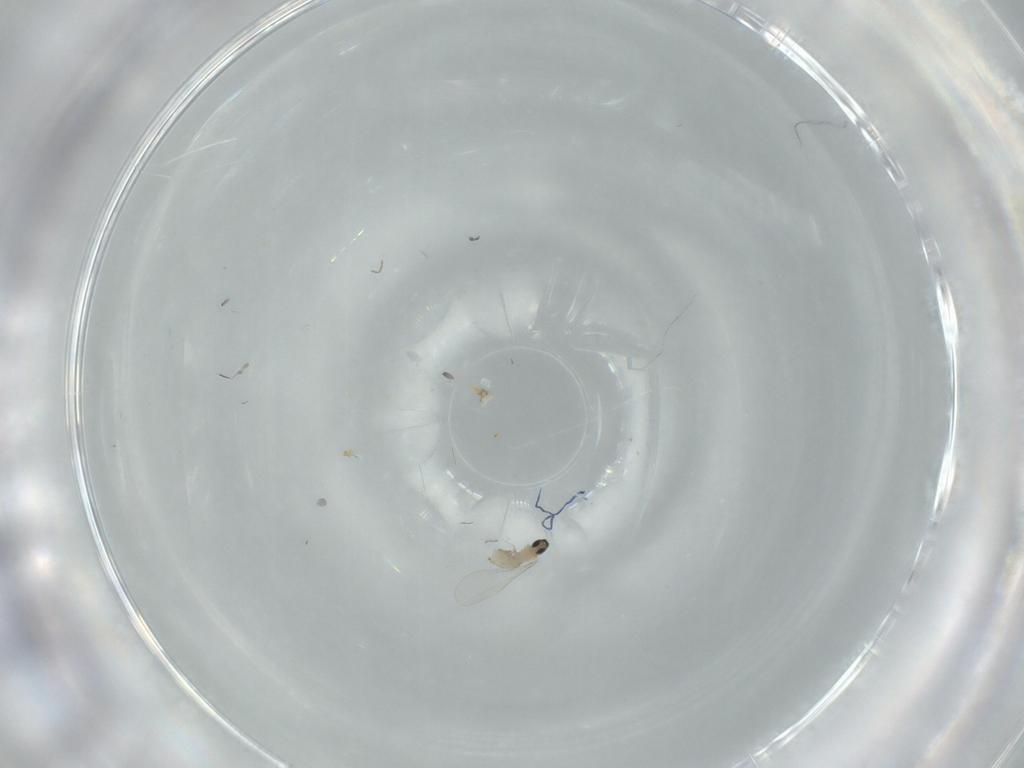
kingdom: Animalia
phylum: Arthropoda
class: Insecta
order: Diptera
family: Cecidomyiidae
